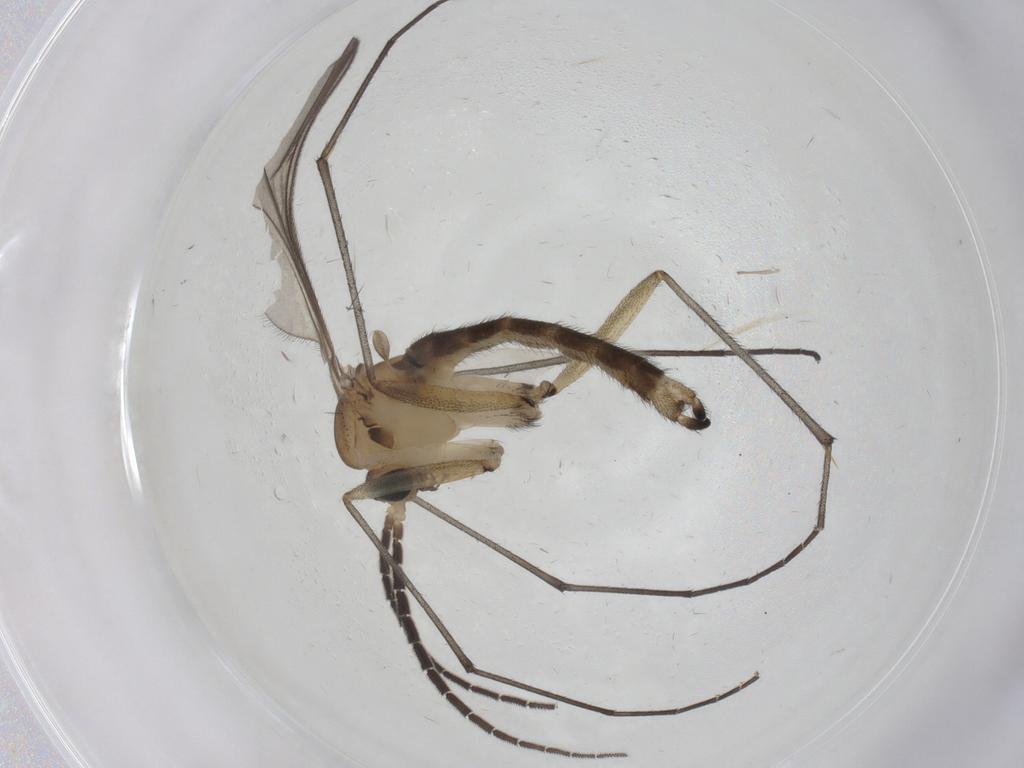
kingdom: Animalia
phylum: Arthropoda
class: Insecta
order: Diptera
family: Sciaridae
